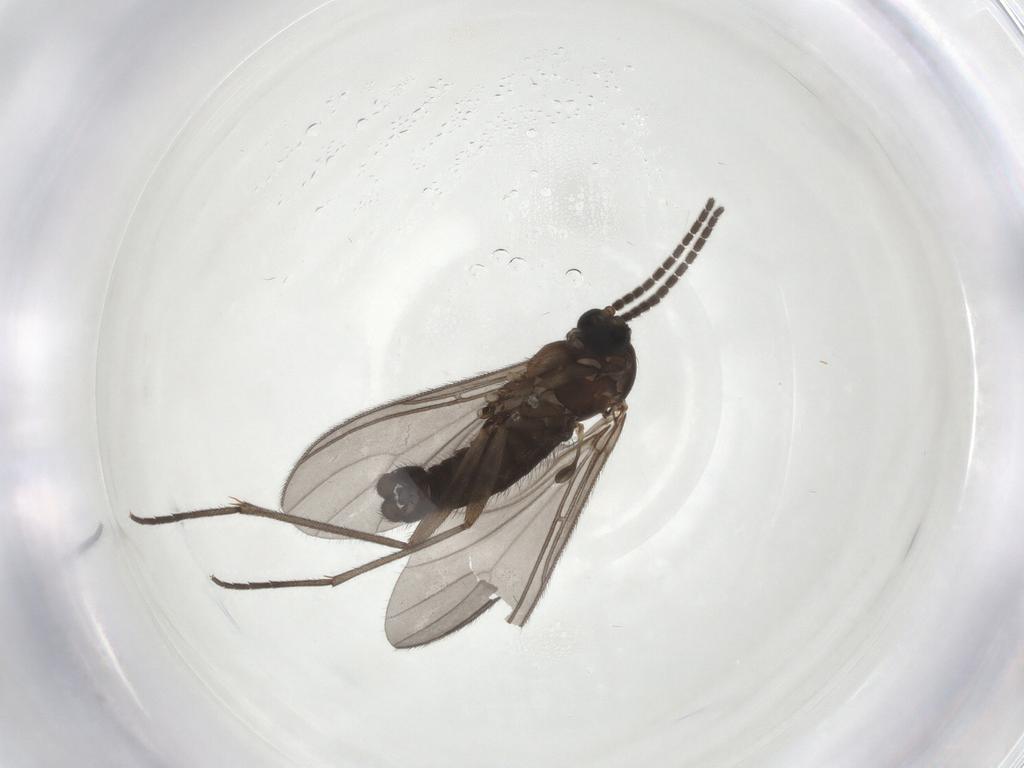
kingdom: Animalia
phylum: Arthropoda
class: Insecta
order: Diptera
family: Sciaridae
